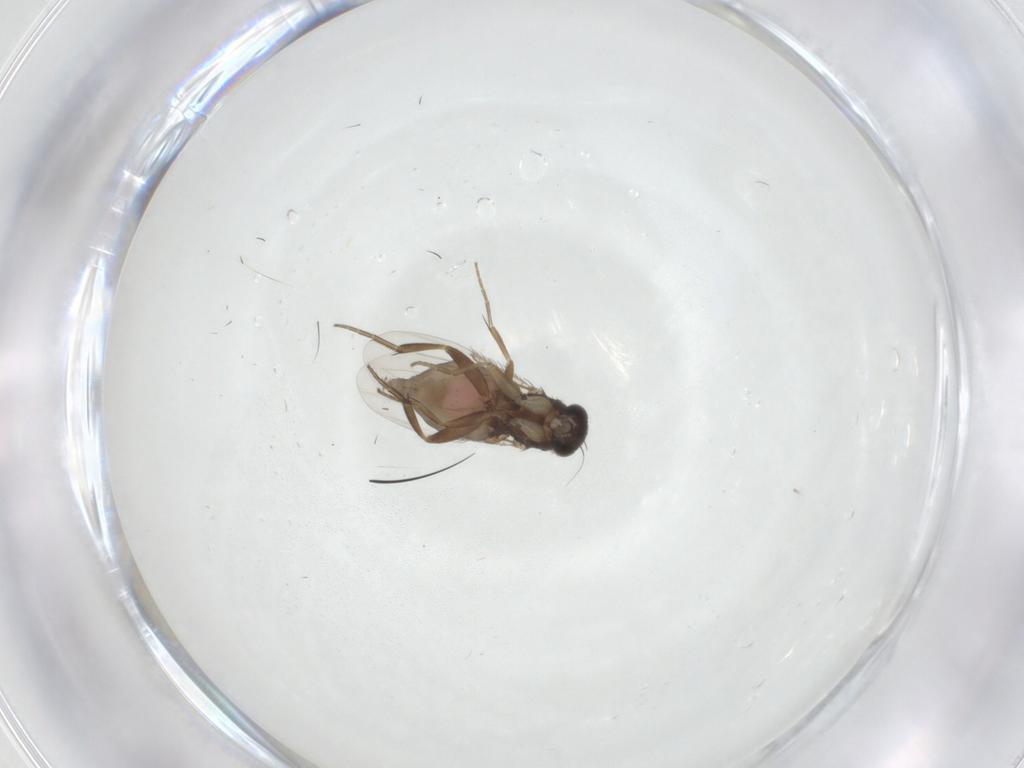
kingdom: Animalia
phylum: Arthropoda
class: Insecta
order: Diptera
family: Phoridae
